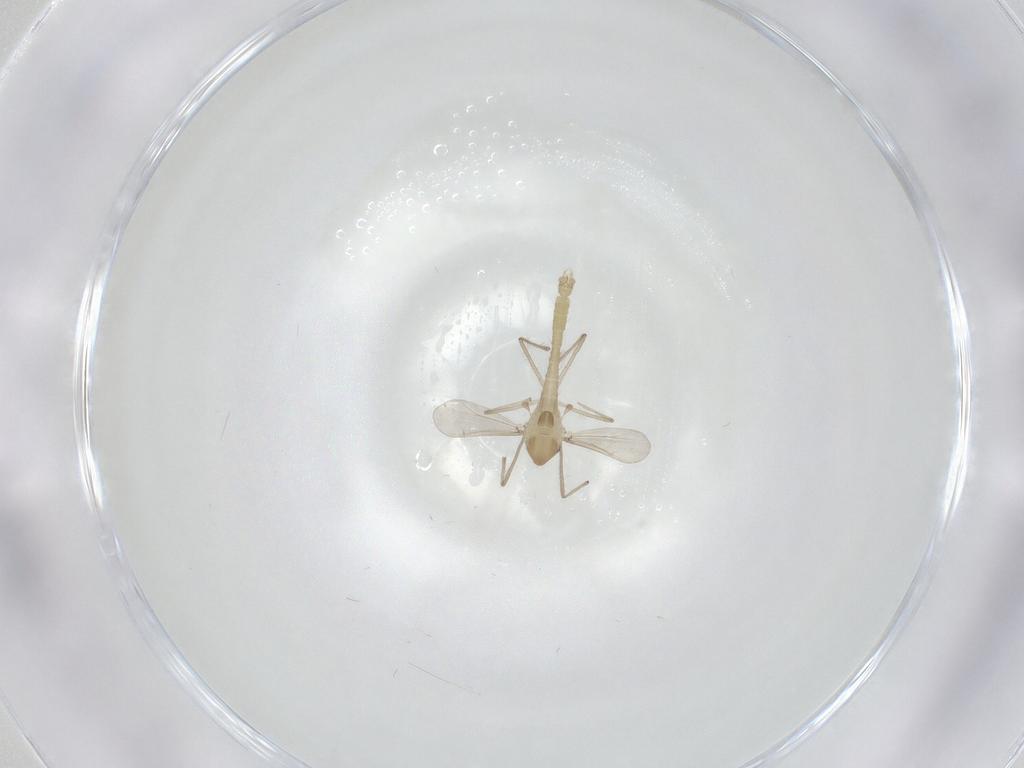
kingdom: Animalia
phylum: Arthropoda
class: Insecta
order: Diptera
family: Chironomidae
